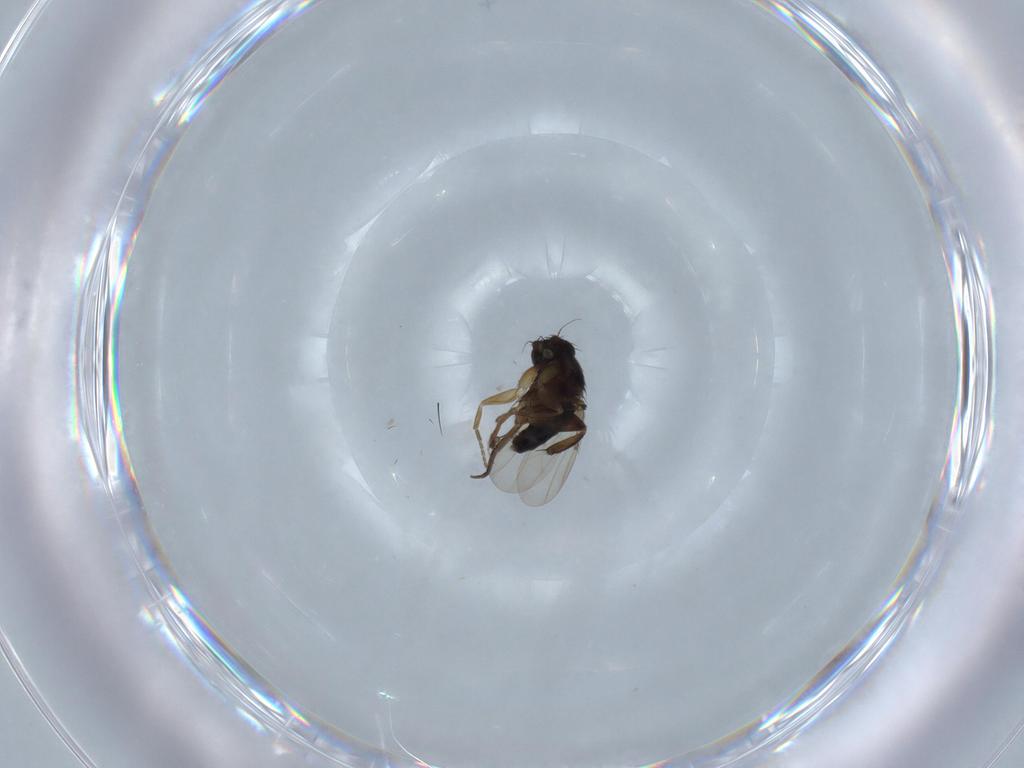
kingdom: Animalia
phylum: Arthropoda
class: Insecta
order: Diptera
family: Phoridae
